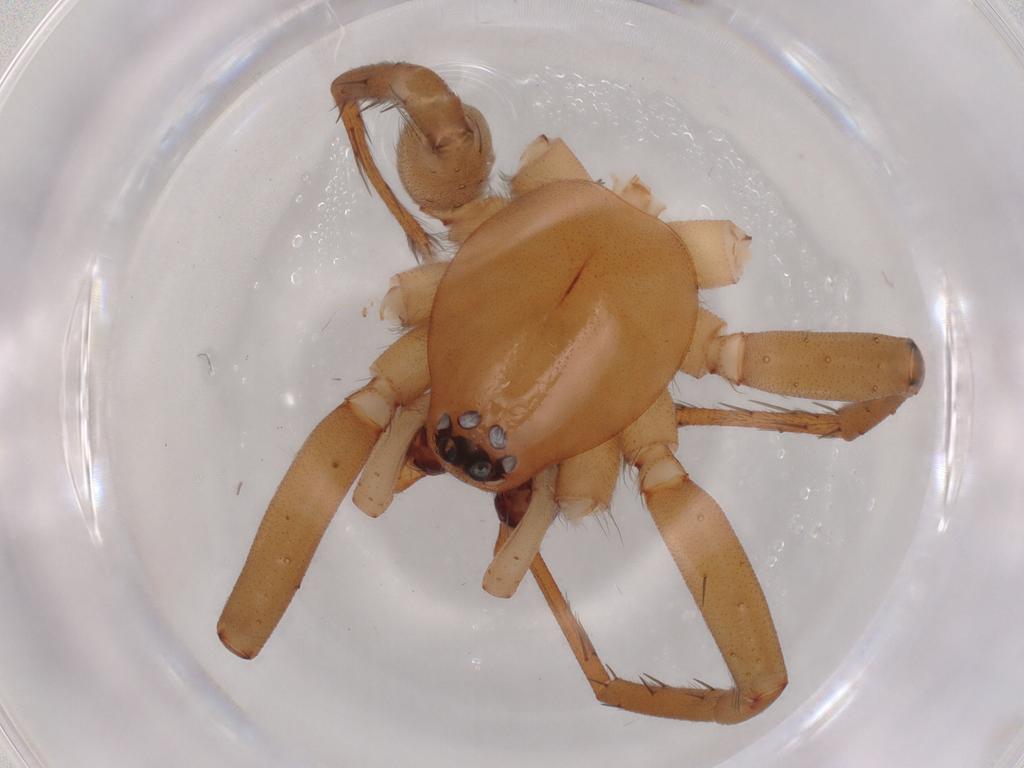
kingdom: Animalia
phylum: Arthropoda
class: Arachnida
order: Araneae
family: Gnaphosidae
